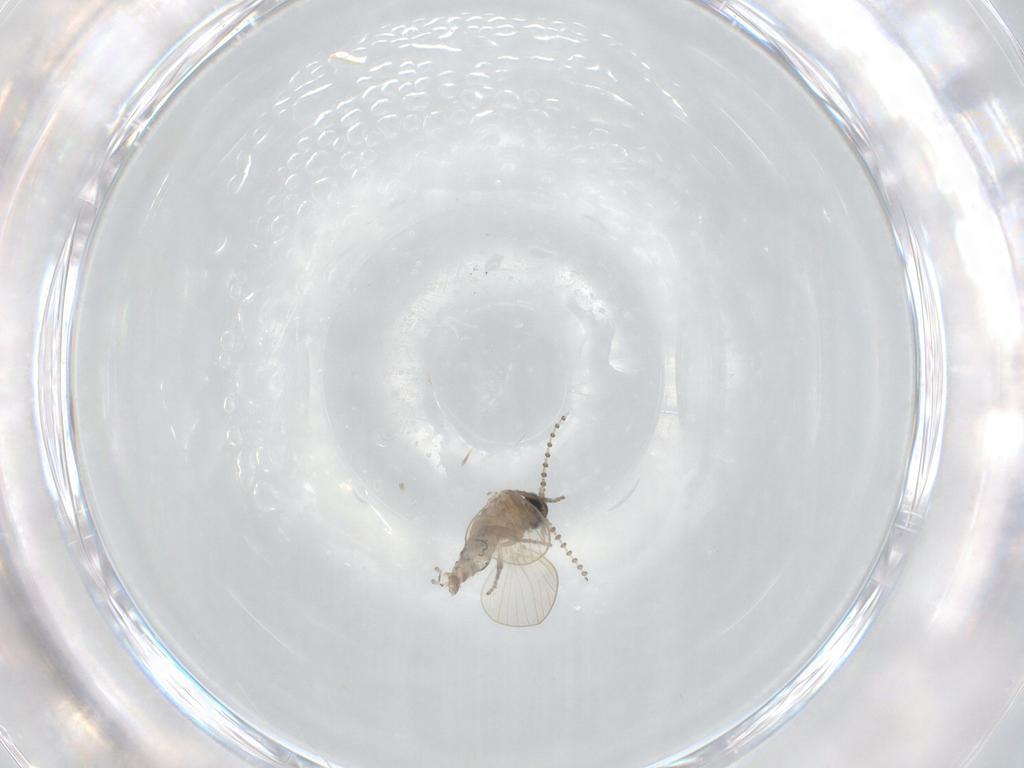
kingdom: Animalia
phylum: Arthropoda
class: Insecta
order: Diptera
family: Psychodidae
